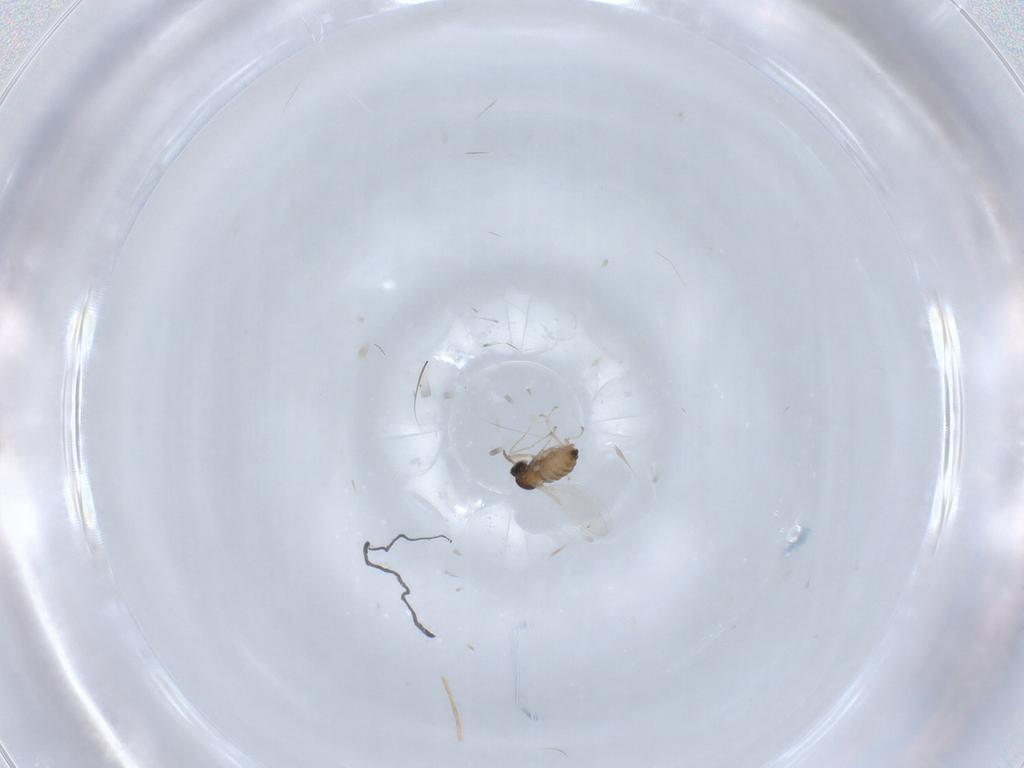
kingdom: Animalia
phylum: Arthropoda
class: Insecta
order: Diptera
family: Cecidomyiidae
